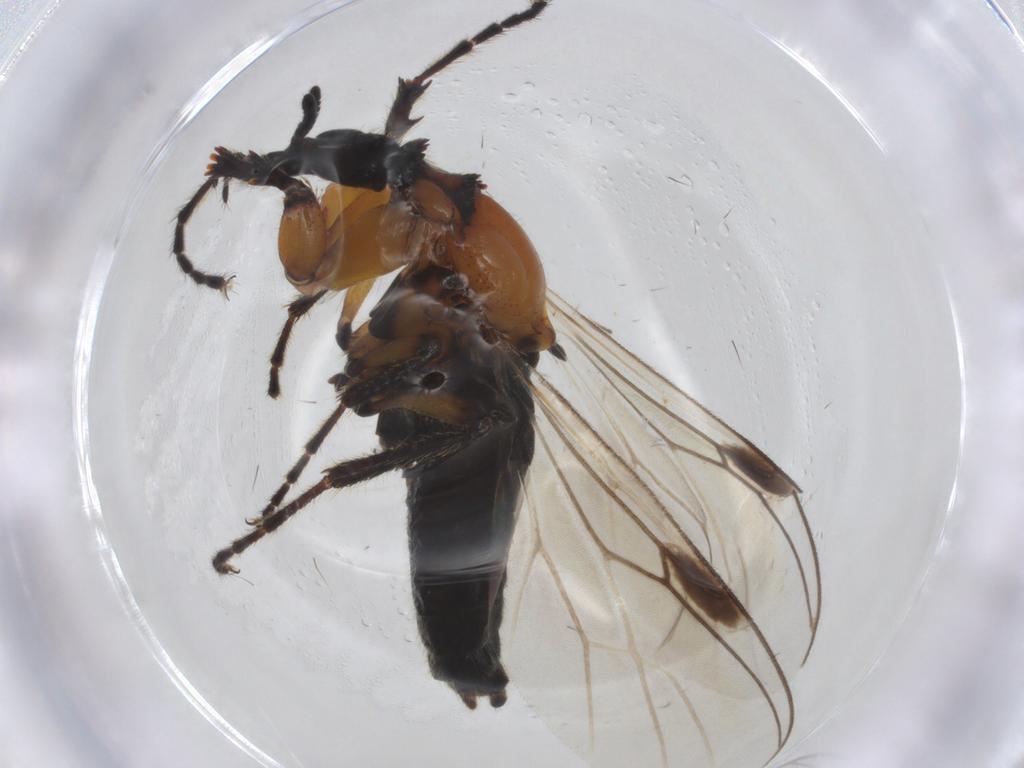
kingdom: Animalia
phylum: Arthropoda
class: Insecta
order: Diptera
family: Bibionidae
